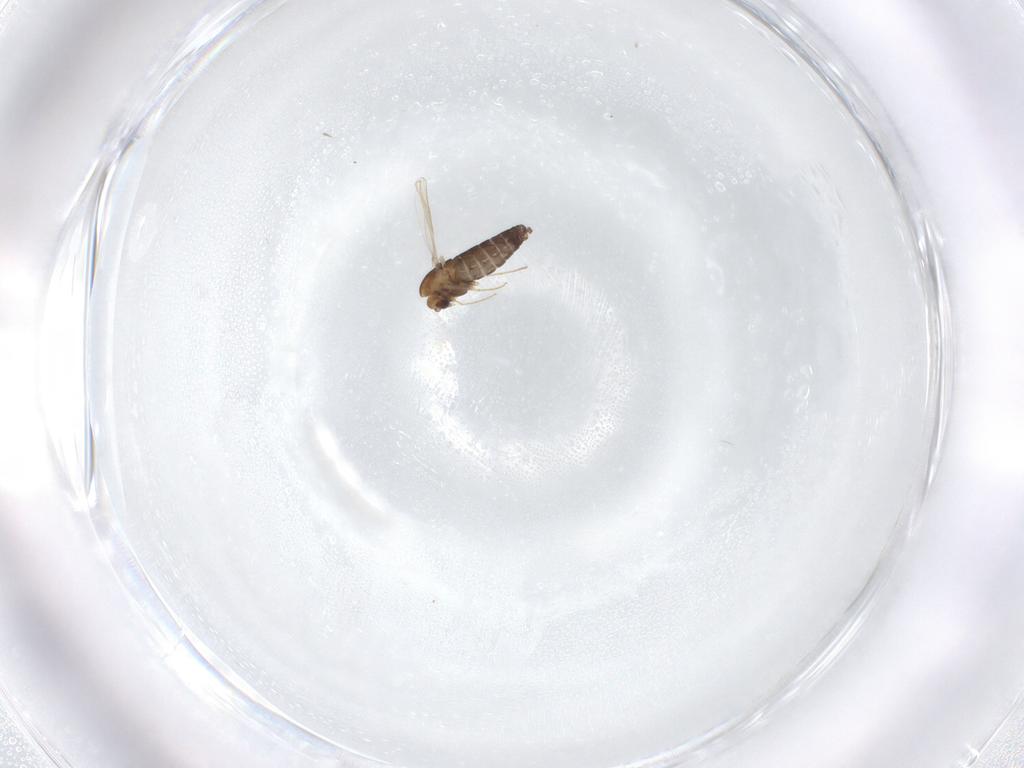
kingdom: Animalia
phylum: Arthropoda
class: Insecta
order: Diptera
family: Chironomidae
